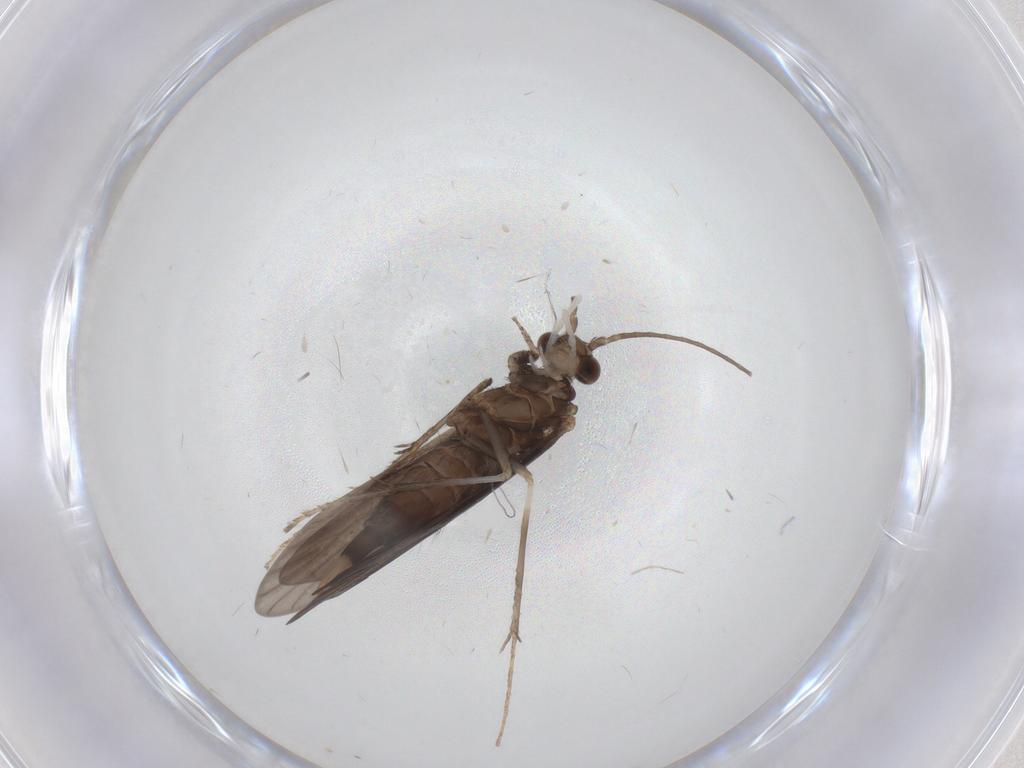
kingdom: Animalia
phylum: Arthropoda
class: Insecta
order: Trichoptera
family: Xiphocentronidae
